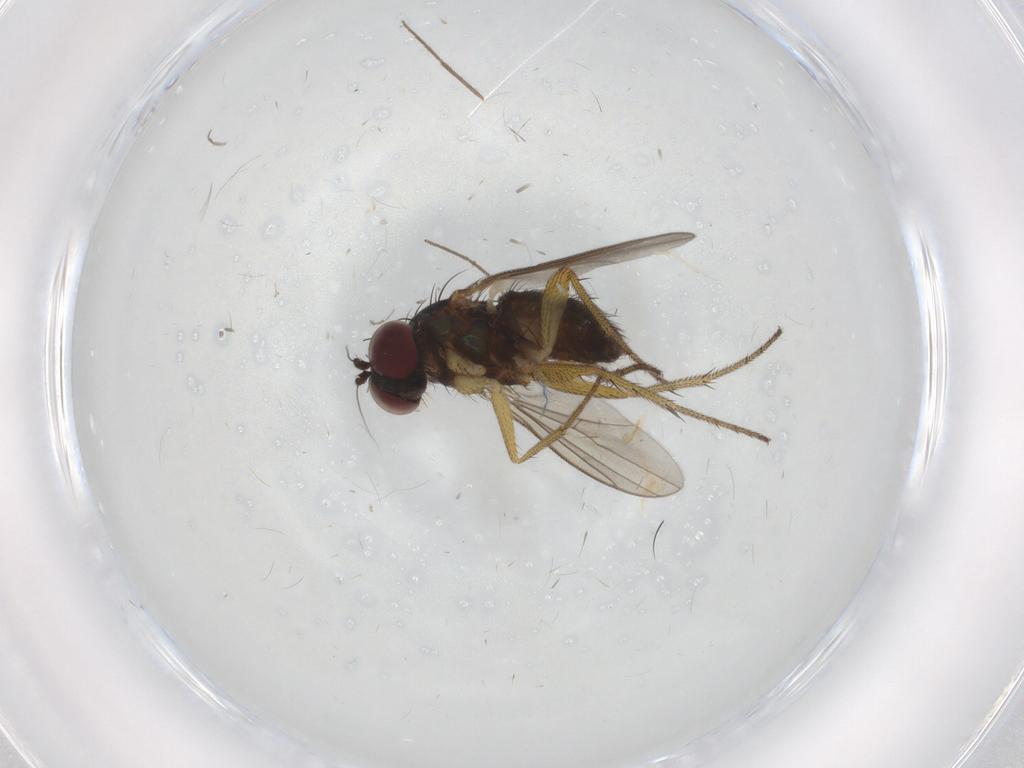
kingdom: Animalia
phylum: Arthropoda
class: Insecta
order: Diptera
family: Dolichopodidae
